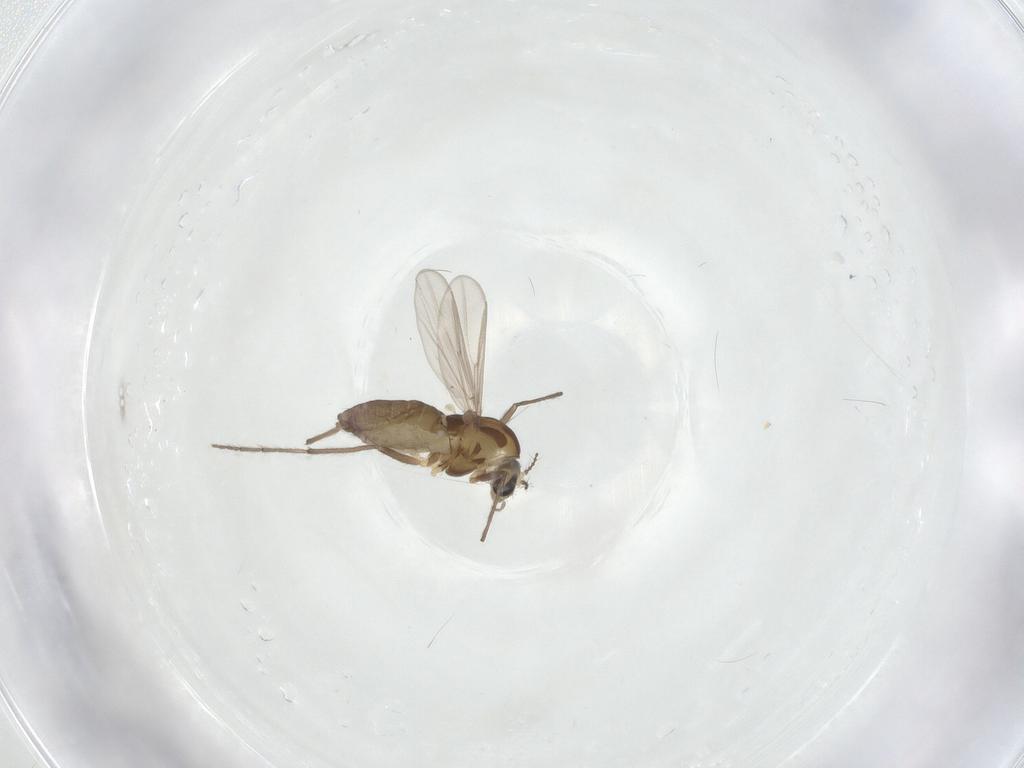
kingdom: Animalia
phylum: Arthropoda
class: Insecta
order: Diptera
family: Chironomidae
